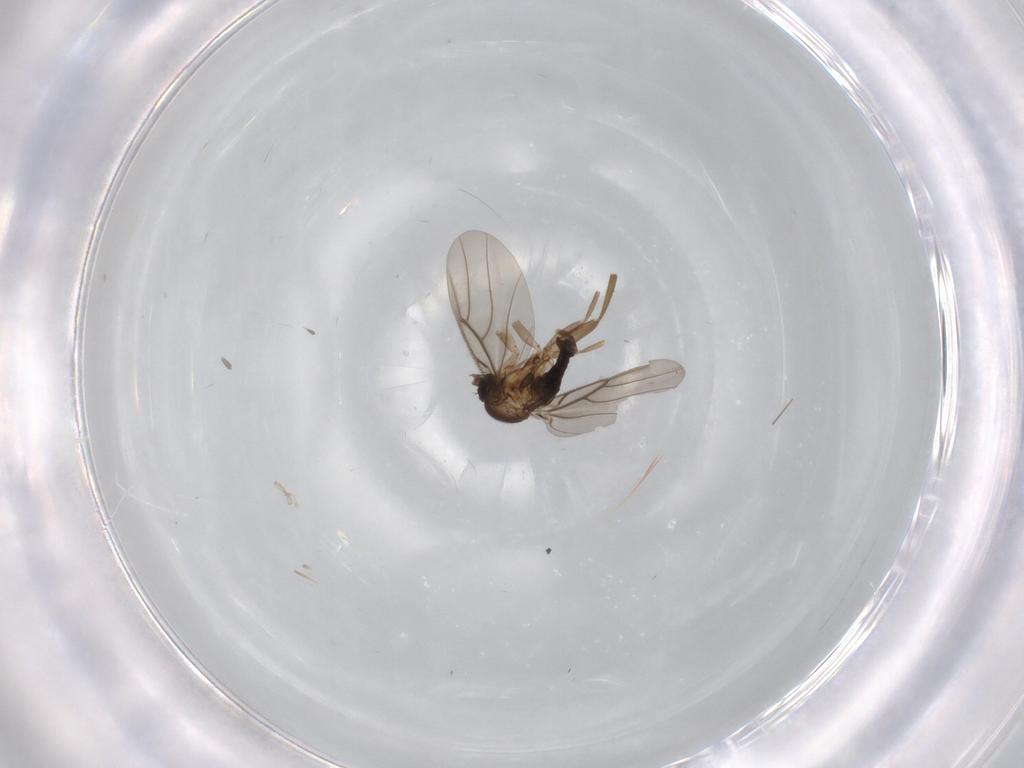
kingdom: Animalia
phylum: Arthropoda
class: Insecta
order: Diptera
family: Phoridae
